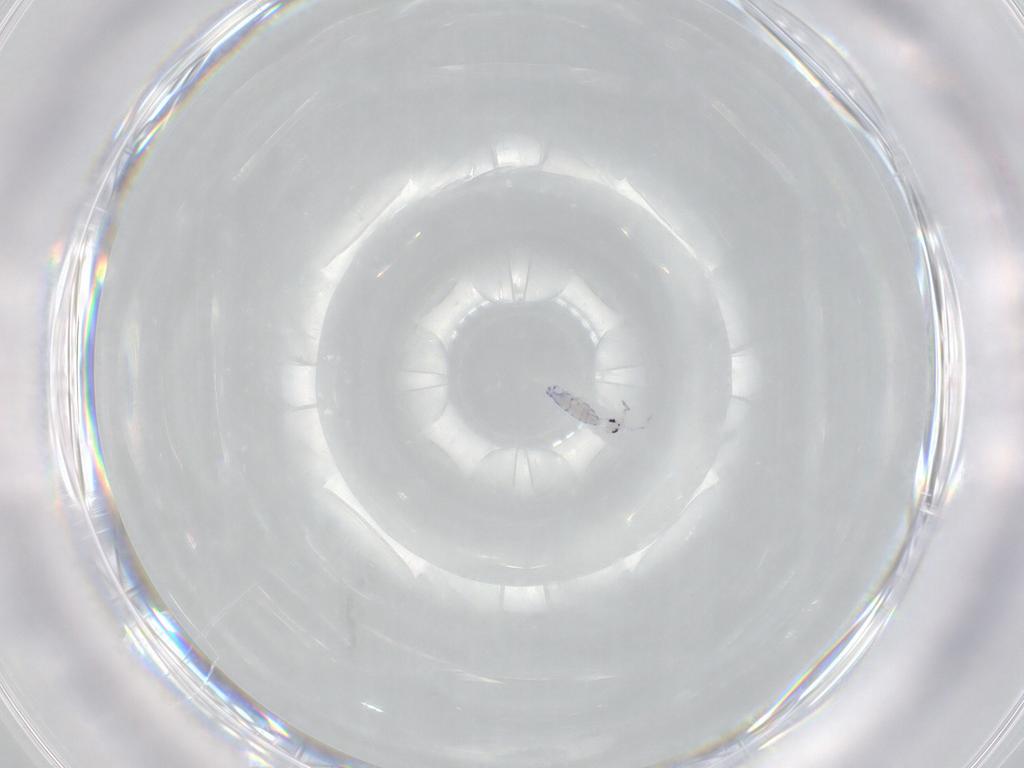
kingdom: Animalia
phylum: Arthropoda
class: Collembola
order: Entomobryomorpha
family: Entomobryidae
